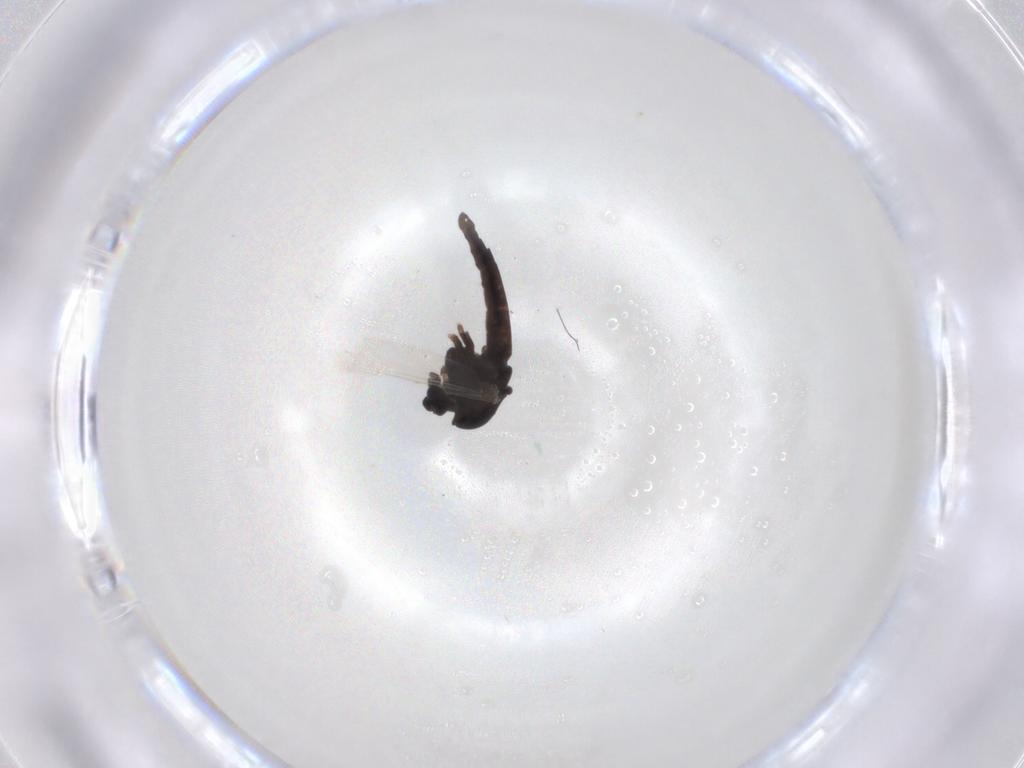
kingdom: Animalia
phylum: Arthropoda
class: Insecta
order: Diptera
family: Chironomidae
